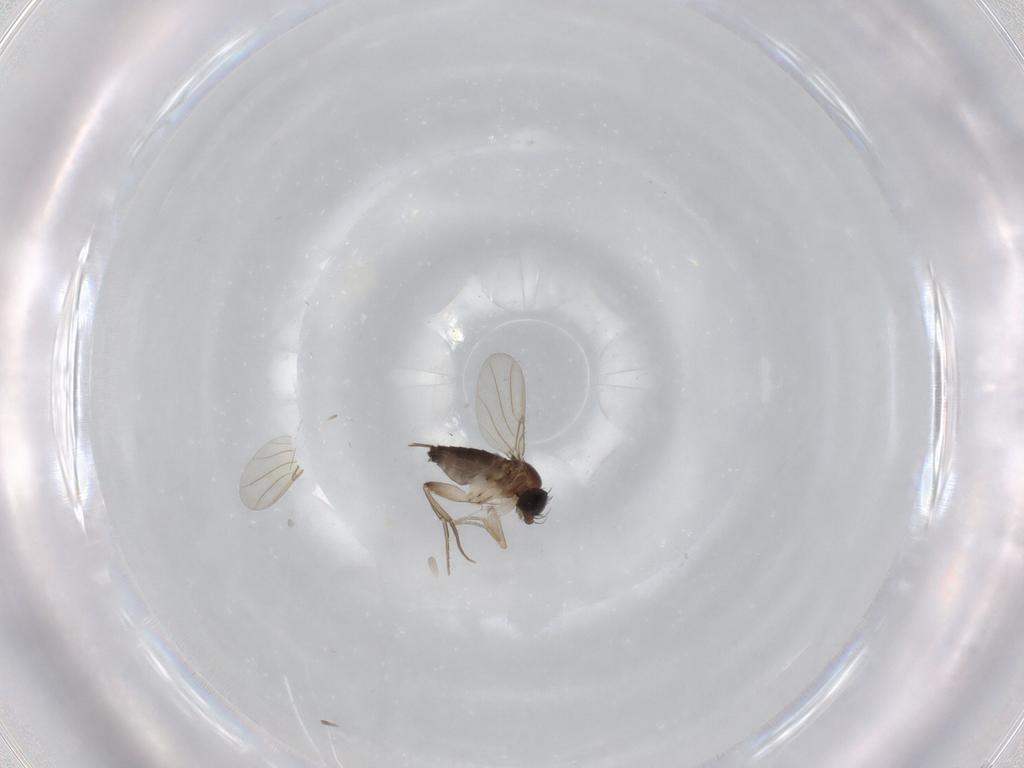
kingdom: Animalia
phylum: Arthropoda
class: Insecta
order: Diptera
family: Phoridae
